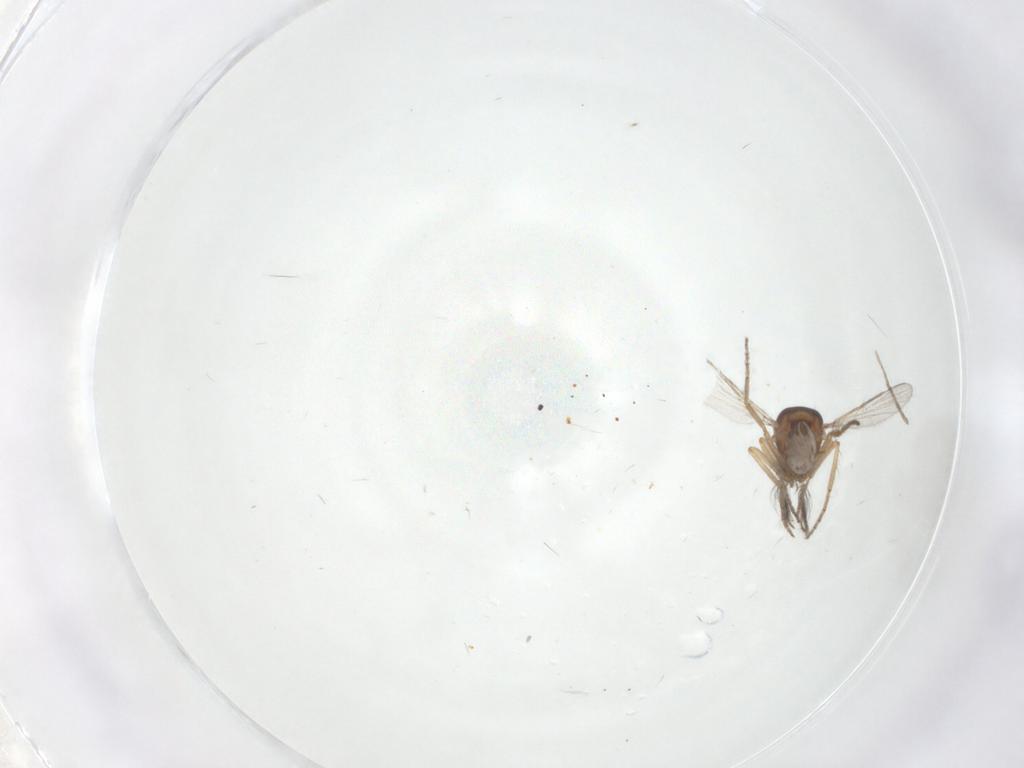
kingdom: Animalia
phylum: Arthropoda
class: Insecta
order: Diptera
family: Ceratopogonidae
